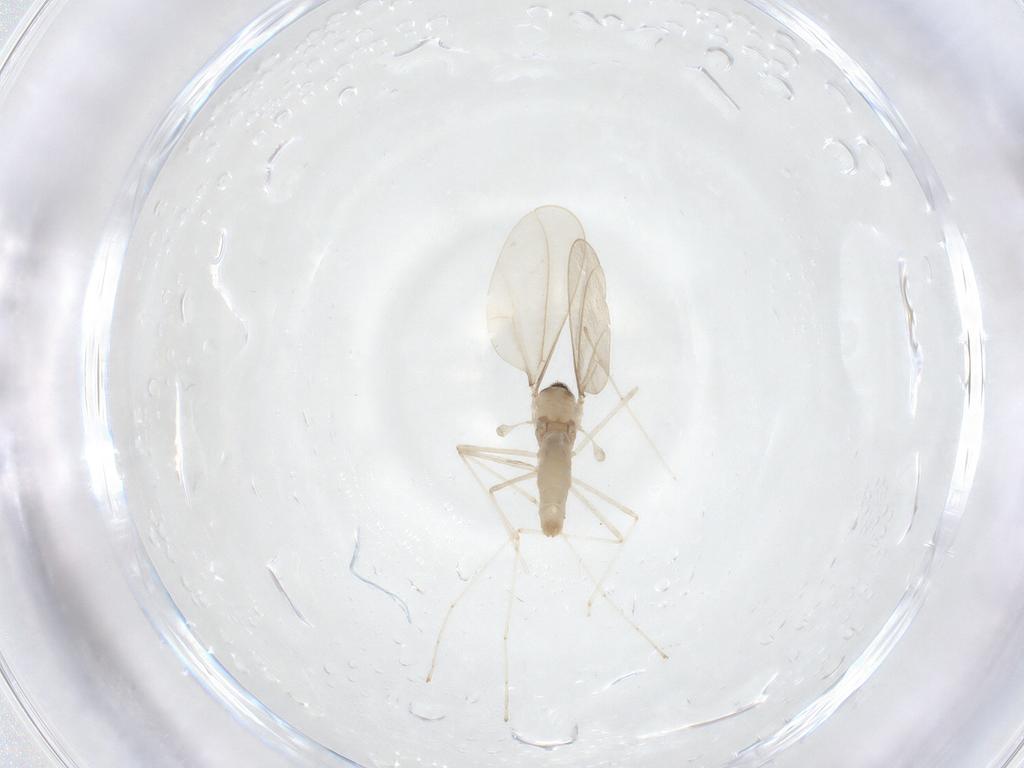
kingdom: Animalia
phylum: Arthropoda
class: Insecta
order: Diptera
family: Cecidomyiidae
